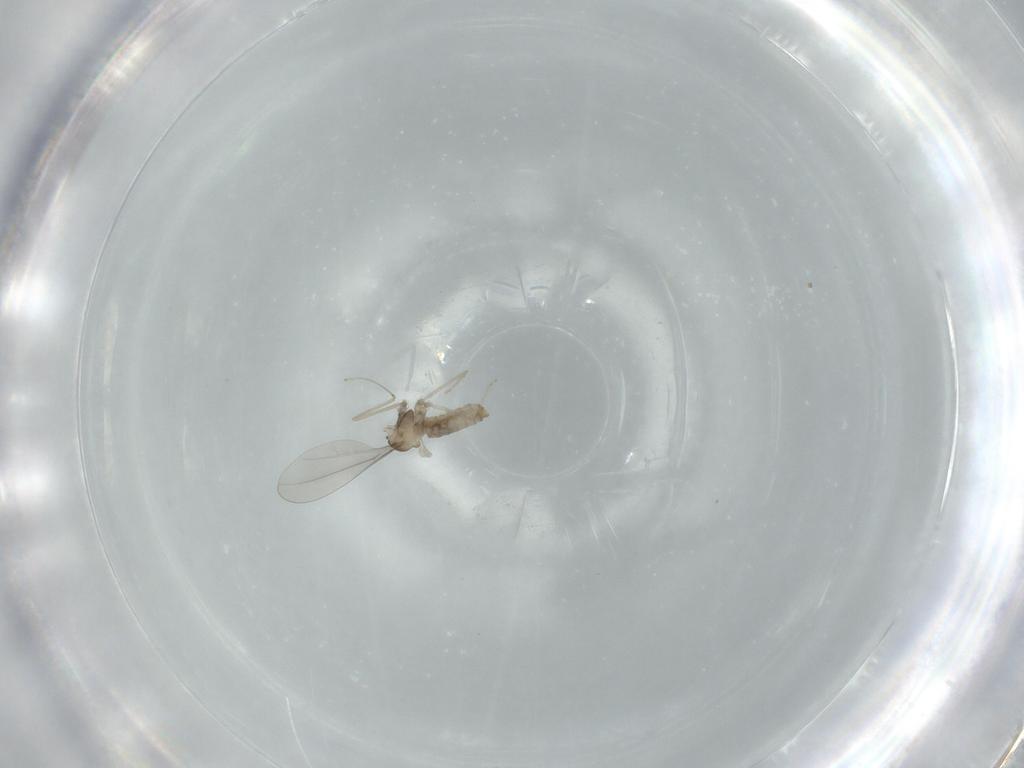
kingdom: Animalia
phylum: Arthropoda
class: Insecta
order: Diptera
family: Cecidomyiidae
